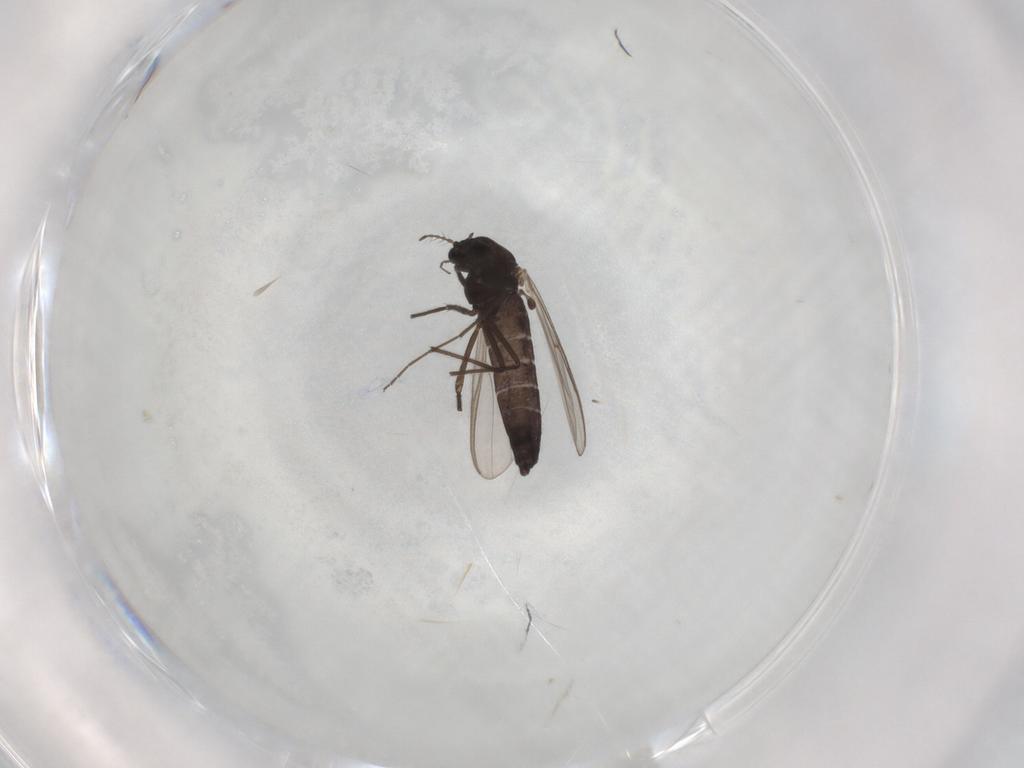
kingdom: Animalia
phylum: Arthropoda
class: Insecta
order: Diptera
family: Chironomidae
